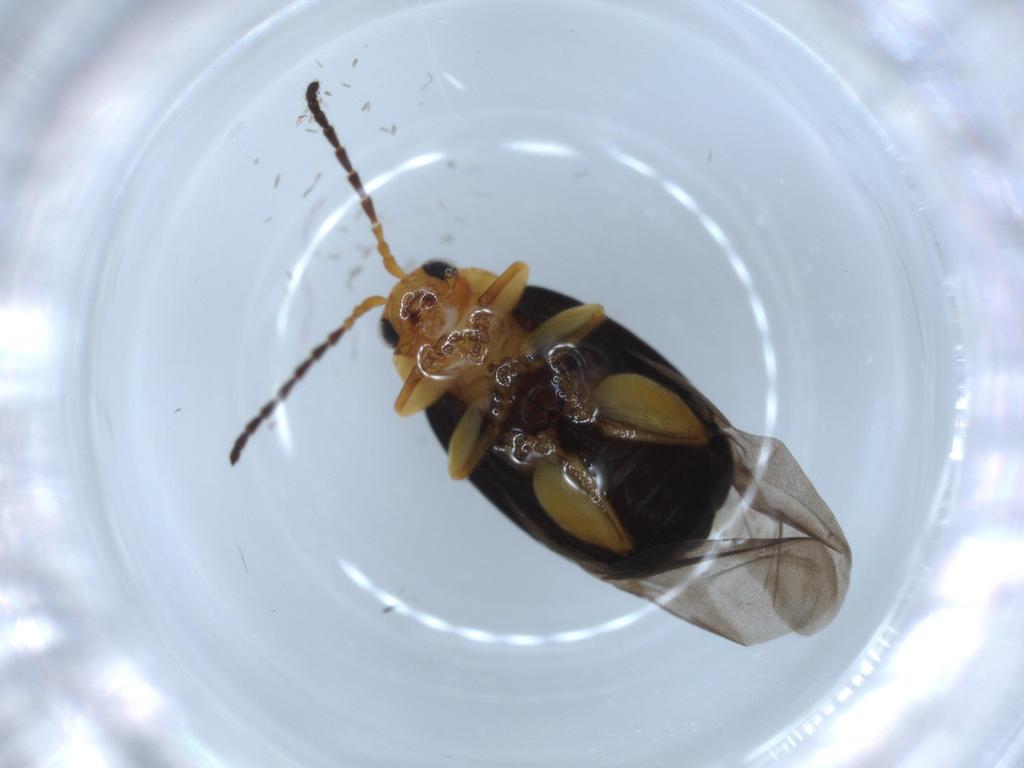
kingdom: Animalia
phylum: Arthropoda
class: Insecta
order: Coleoptera
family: Chrysomelidae
